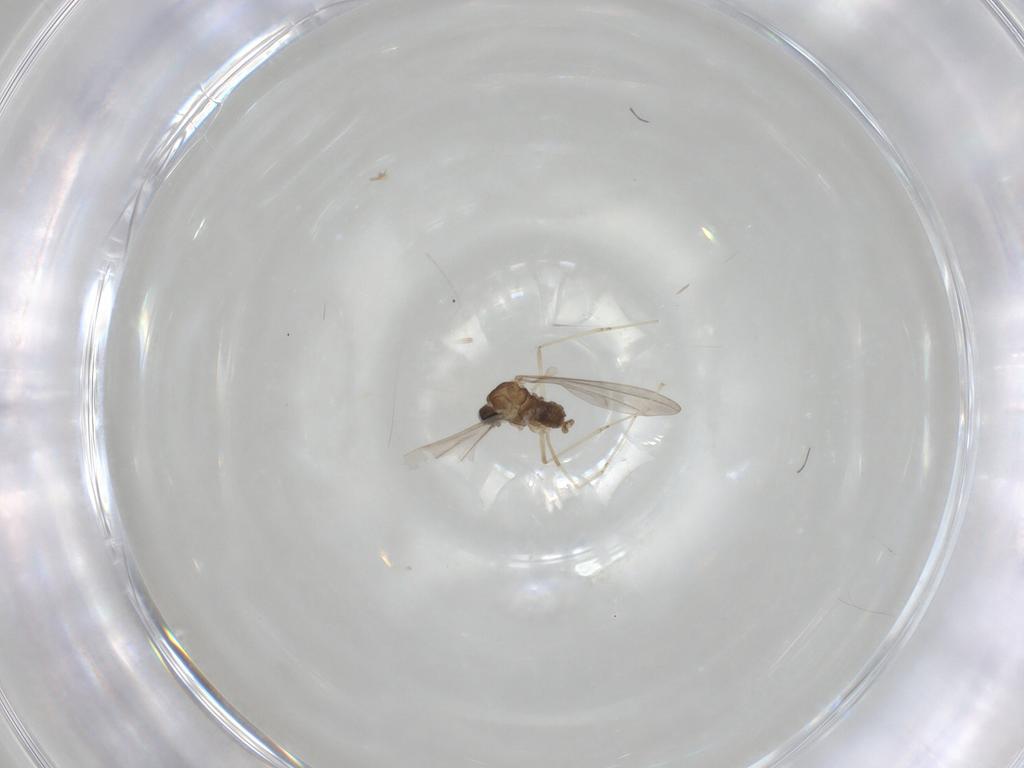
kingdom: Animalia
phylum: Arthropoda
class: Insecta
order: Diptera
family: Cecidomyiidae
